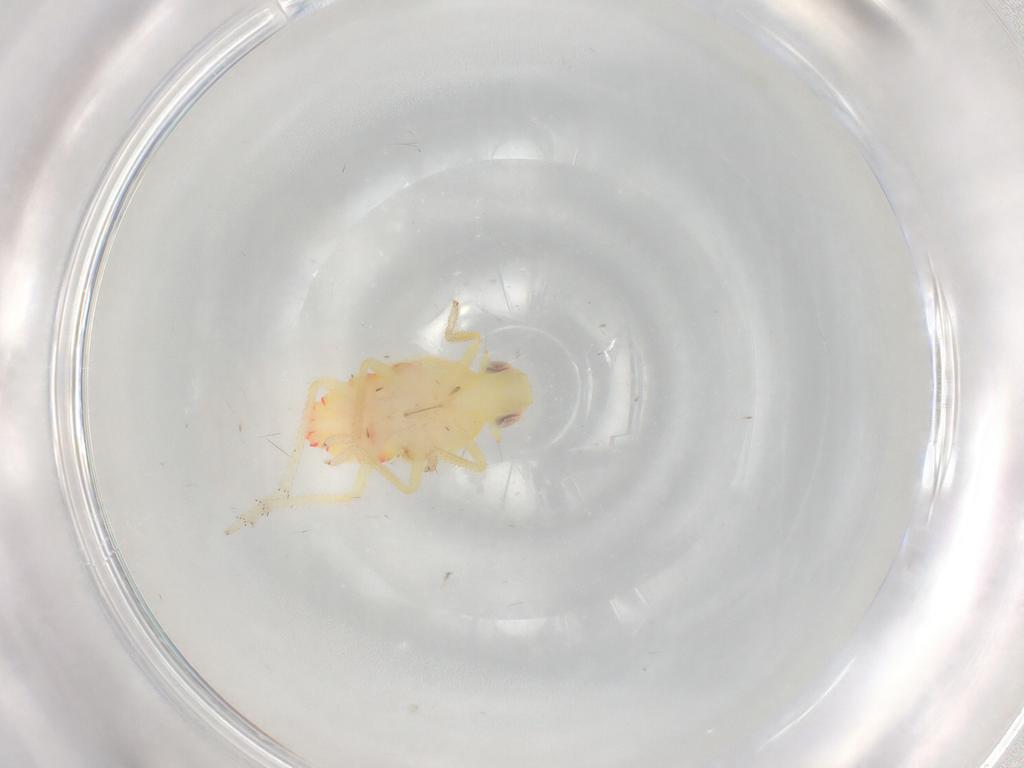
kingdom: Animalia
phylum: Arthropoda
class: Insecta
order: Hemiptera
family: Tropiduchidae
